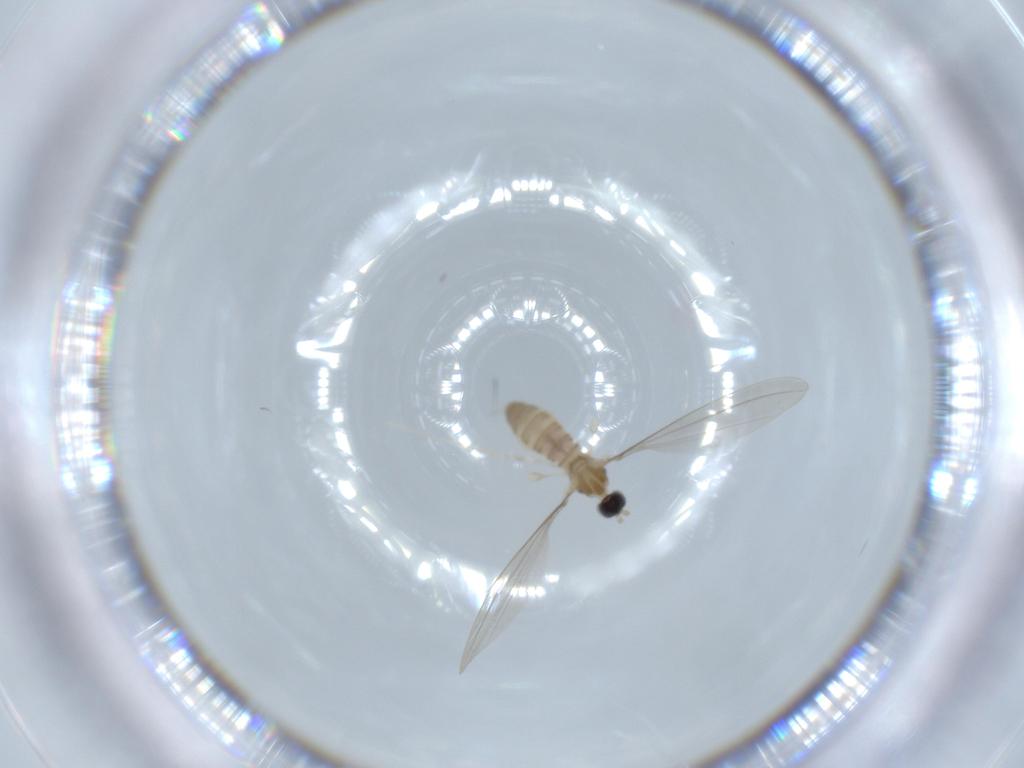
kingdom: Animalia
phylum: Arthropoda
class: Insecta
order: Diptera
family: Cecidomyiidae
